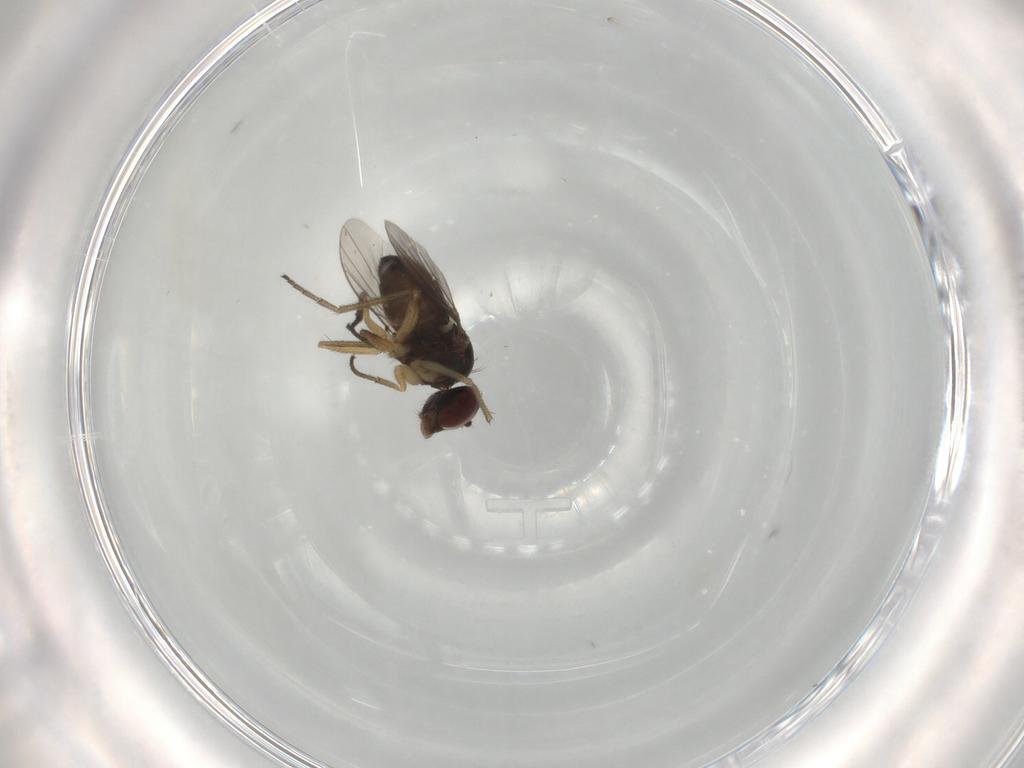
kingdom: Animalia
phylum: Arthropoda
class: Insecta
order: Diptera
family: Dolichopodidae
